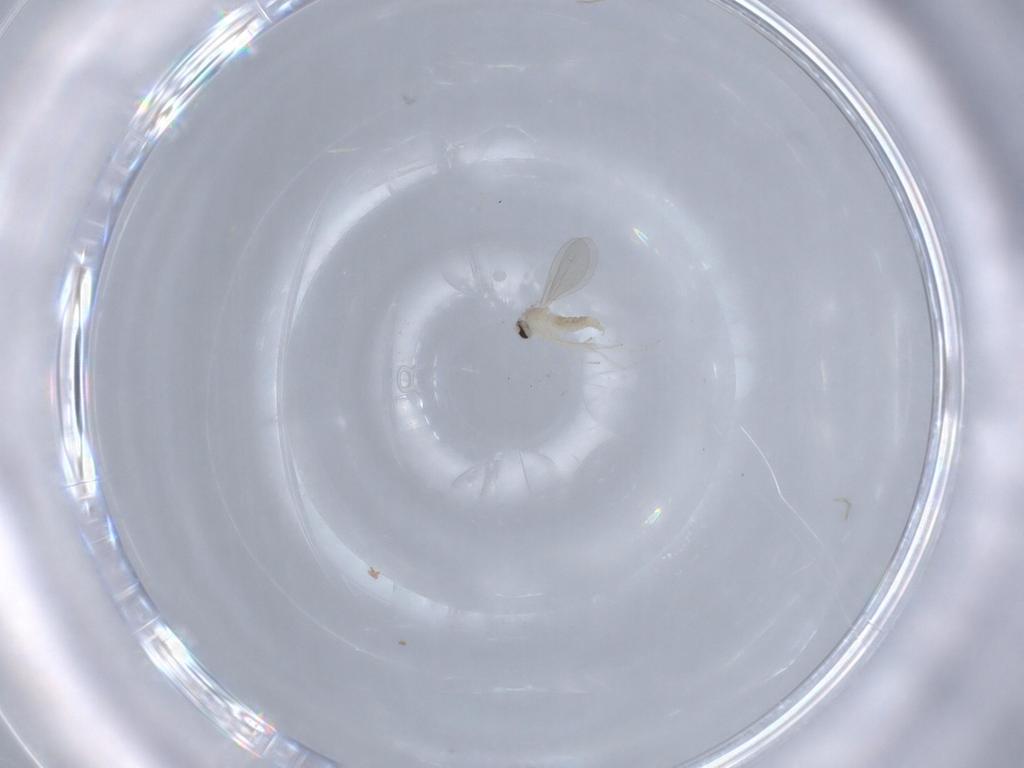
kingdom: Animalia
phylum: Arthropoda
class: Insecta
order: Diptera
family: Cecidomyiidae
